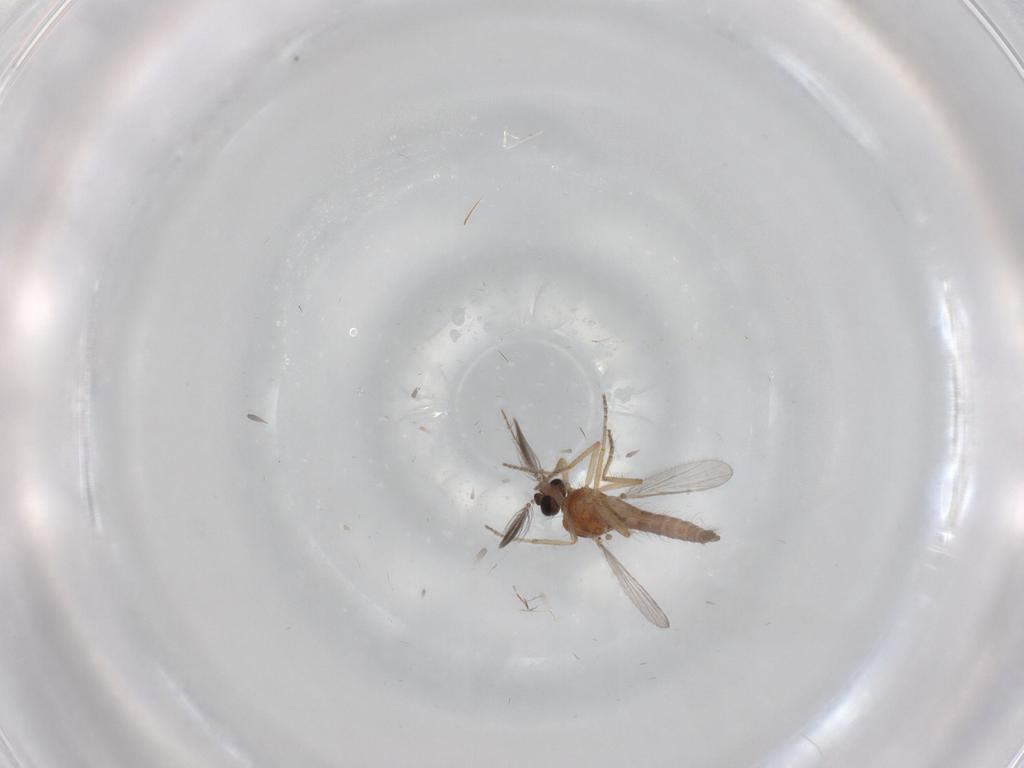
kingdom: Animalia
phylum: Arthropoda
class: Insecta
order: Diptera
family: Ceratopogonidae
